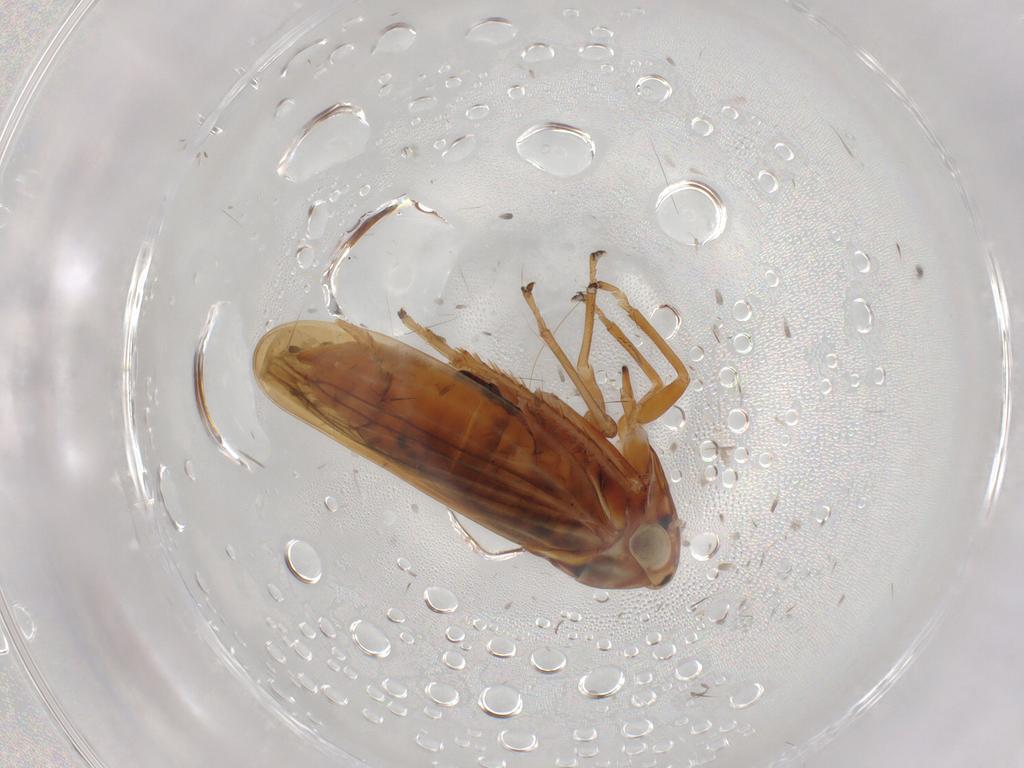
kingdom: Animalia
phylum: Arthropoda
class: Insecta
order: Hemiptera
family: Cicadellidae
